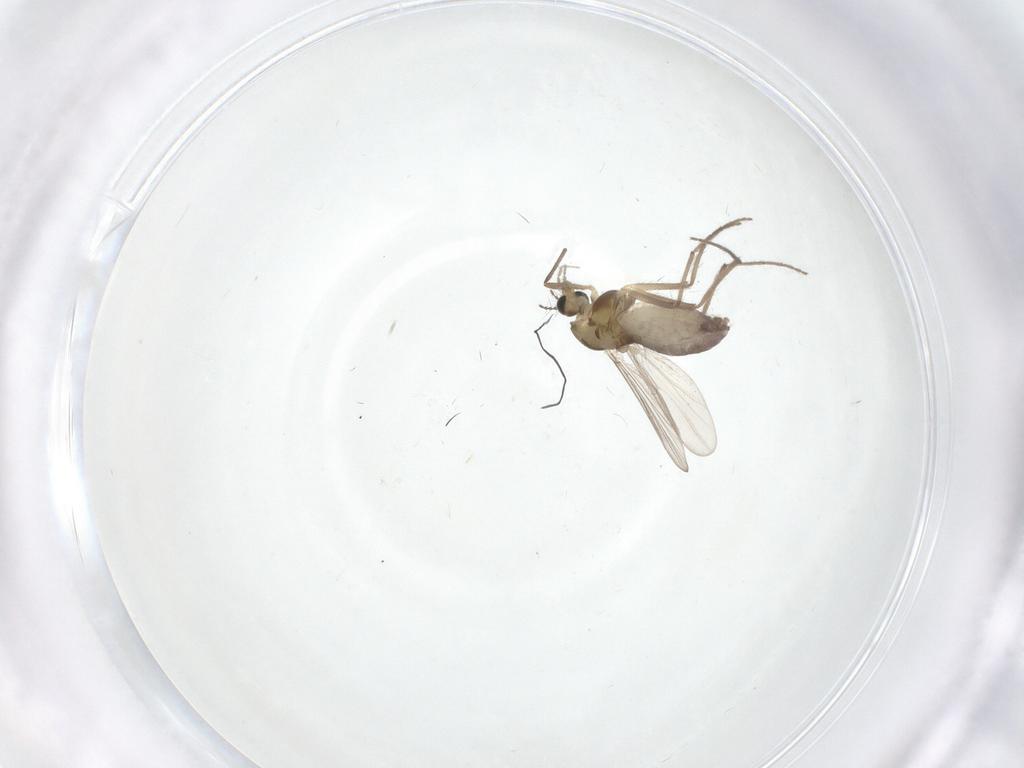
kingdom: Animalia
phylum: Arthropoda
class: Insecta
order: Diptera
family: Chironomidae
